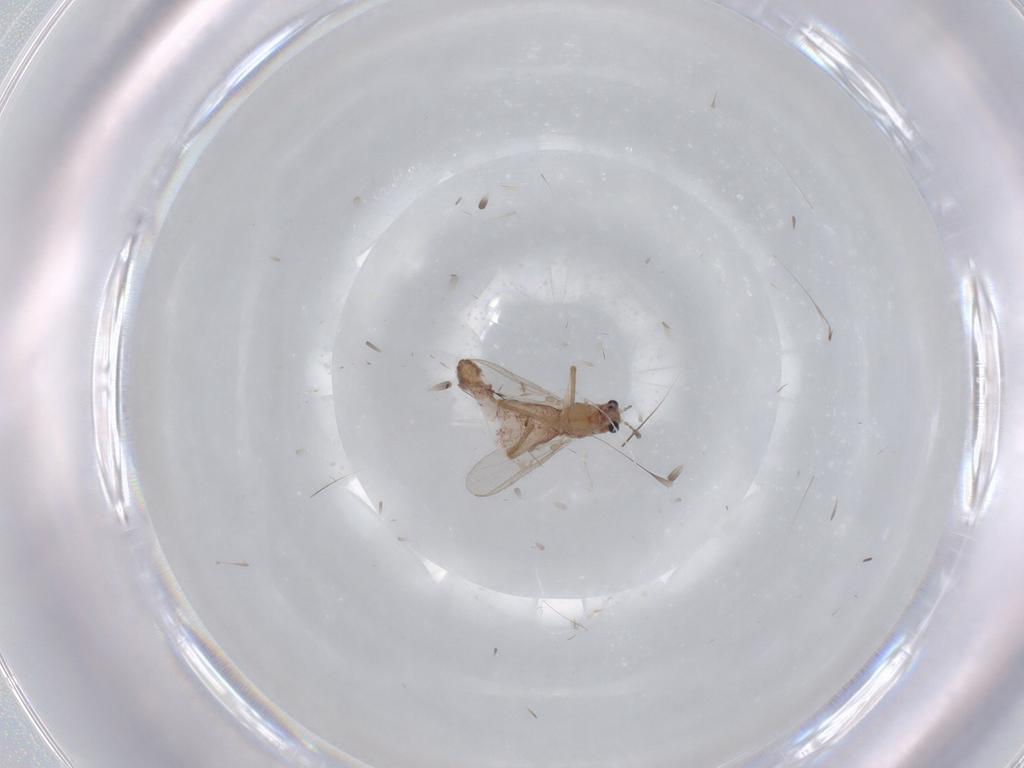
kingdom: Animalia
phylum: Arthropoda
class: Insecta
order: Diptera
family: Chironomidae
